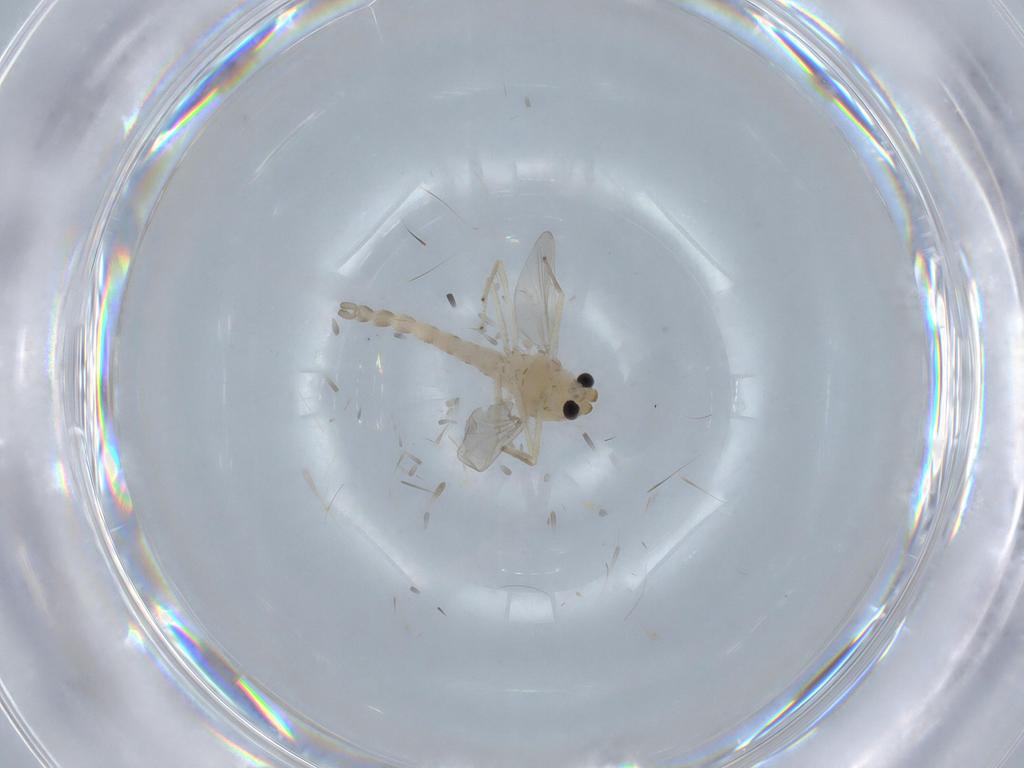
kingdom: Animalia
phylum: Arthropoda
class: Insecta
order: Diptera
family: Chironomidae
